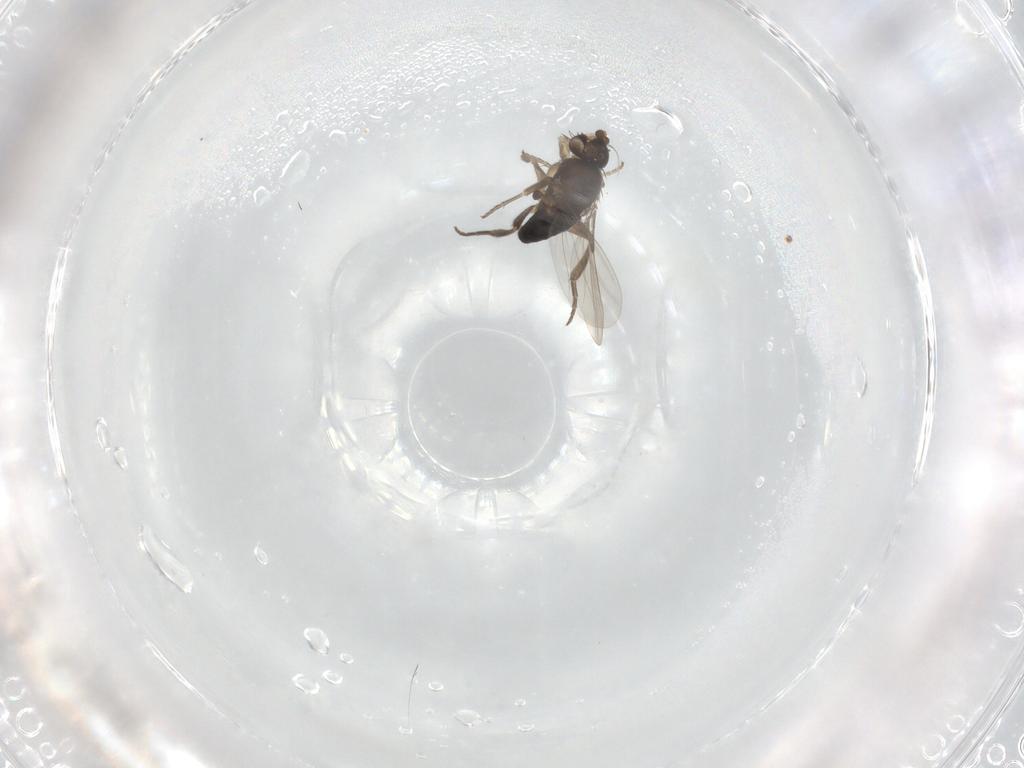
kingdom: Animalia
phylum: Arthropoda
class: Insecta
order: Diptera
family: Phoridae
